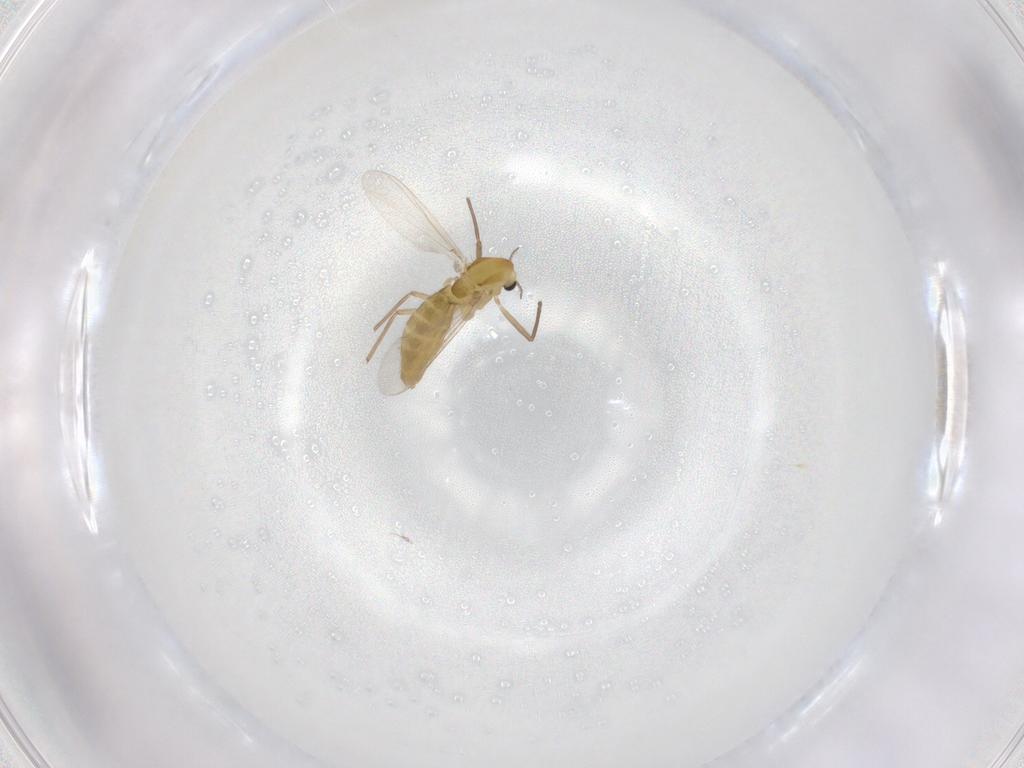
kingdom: Animalia
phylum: Arthropoda
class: Insecta
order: Diptera
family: Chironomidae
